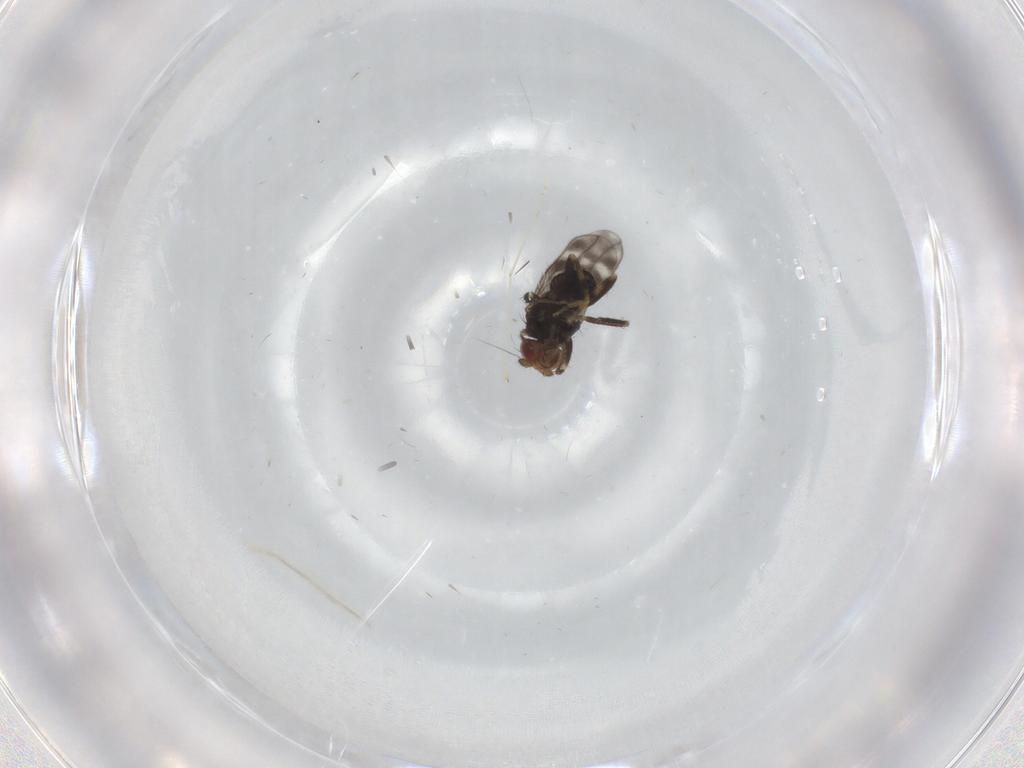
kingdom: Animalia
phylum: Arthropoda
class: Insecta
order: Diptera
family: Sphaeroceridae
